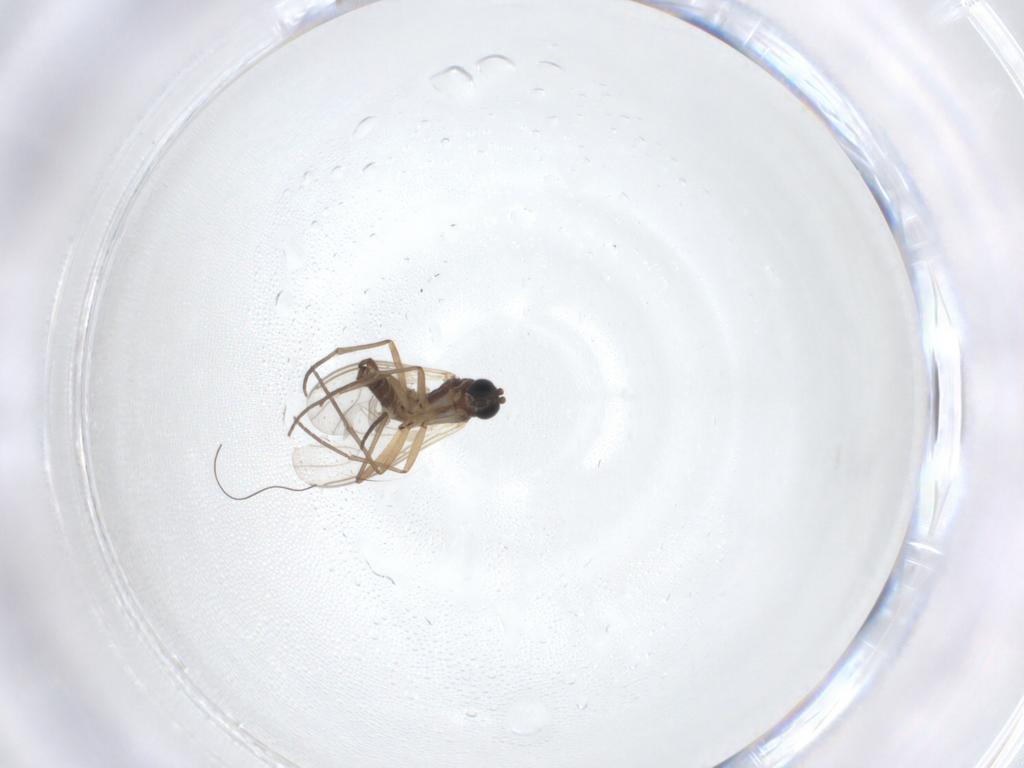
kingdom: Animalia
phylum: Arthropoda
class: Insecta
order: Diptera
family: Sciaridae
